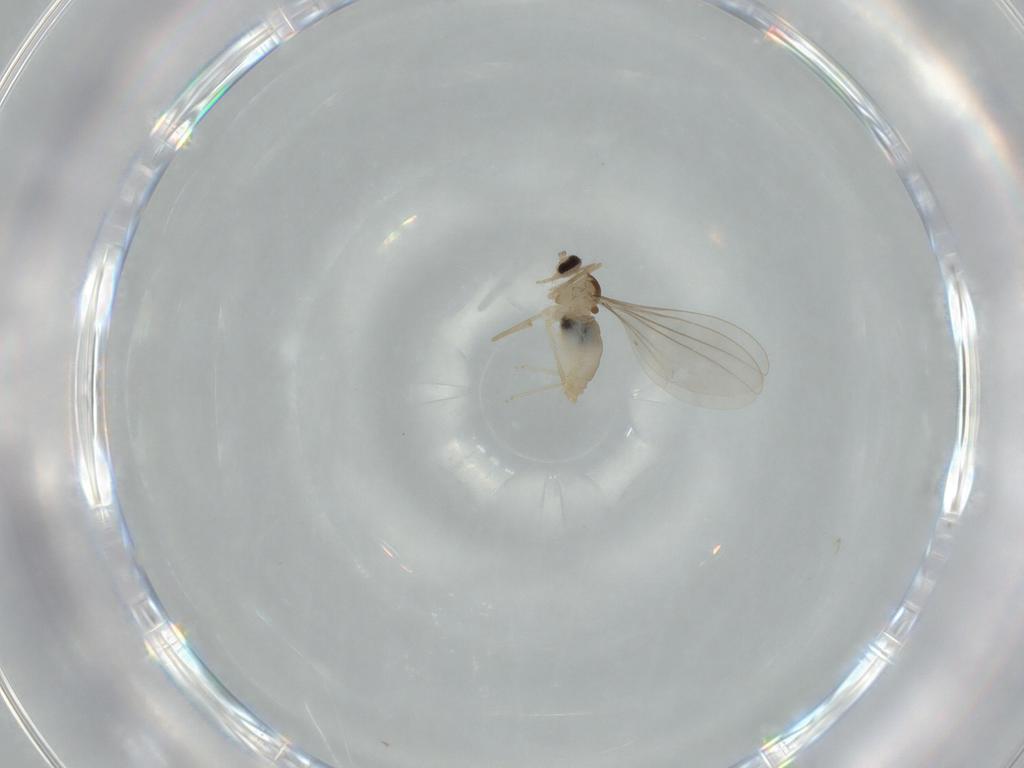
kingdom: Animalia
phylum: Arthropoda
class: Insecta
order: Diptera
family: Cecidomyiidae
